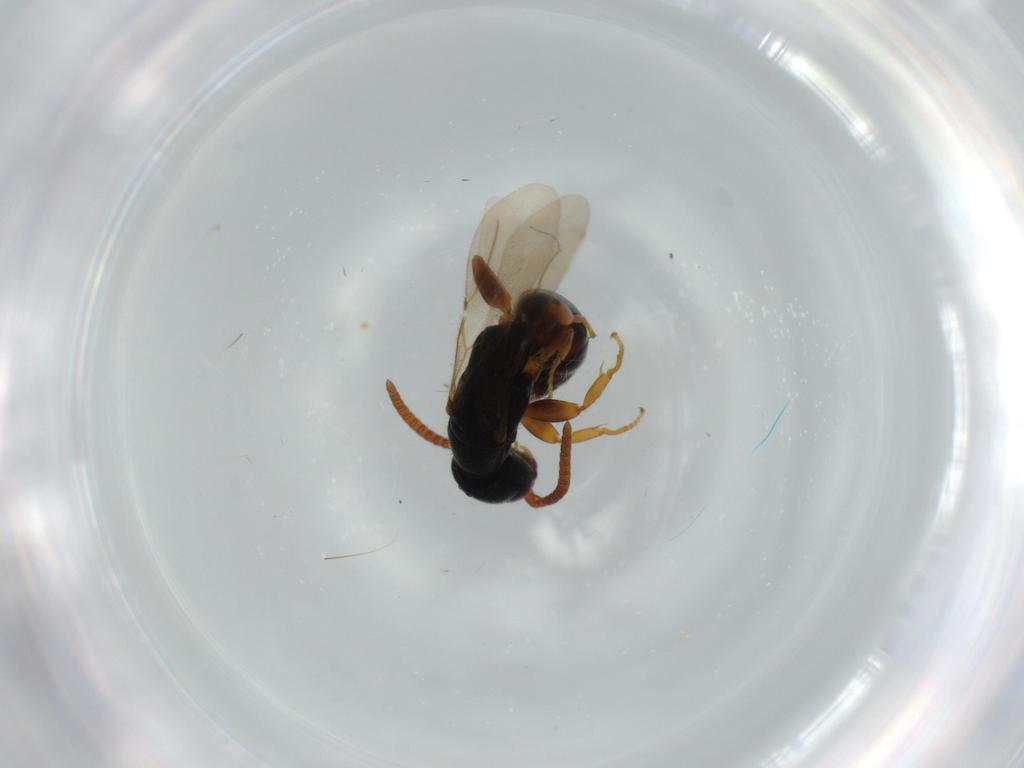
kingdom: Animalia
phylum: Arthropoda
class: Insecta
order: Hymenoptera
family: Bethylidae
